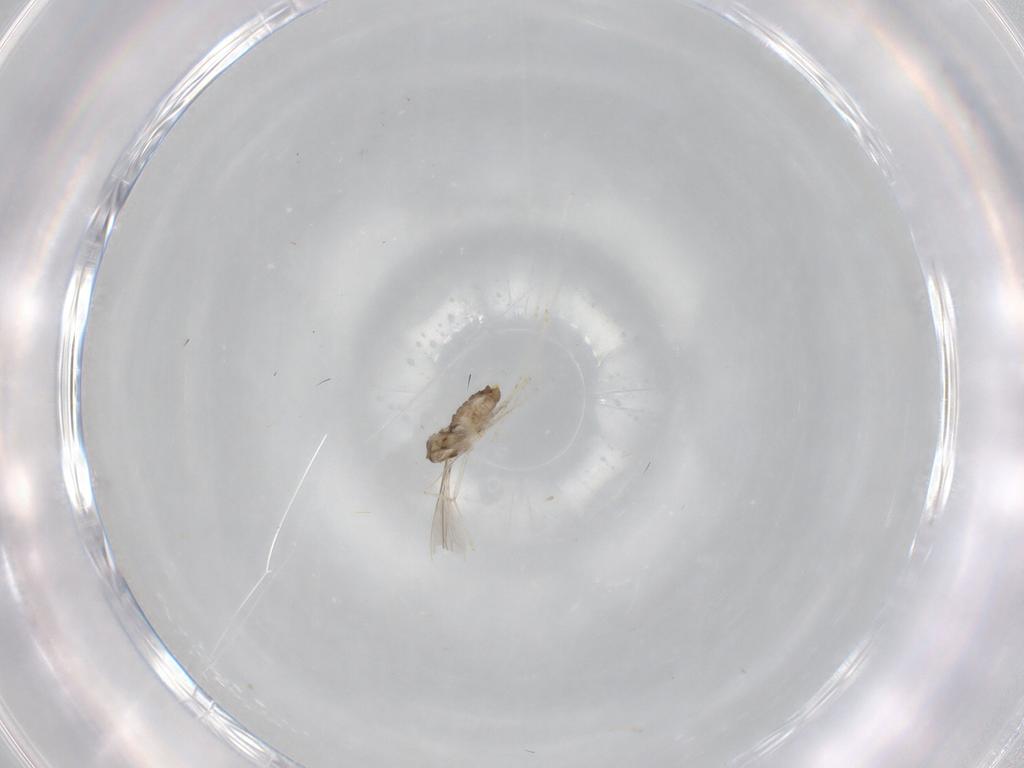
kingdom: Animalia
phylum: Arthropoda
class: Insecta
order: Diptera
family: Cecidomyiidae
